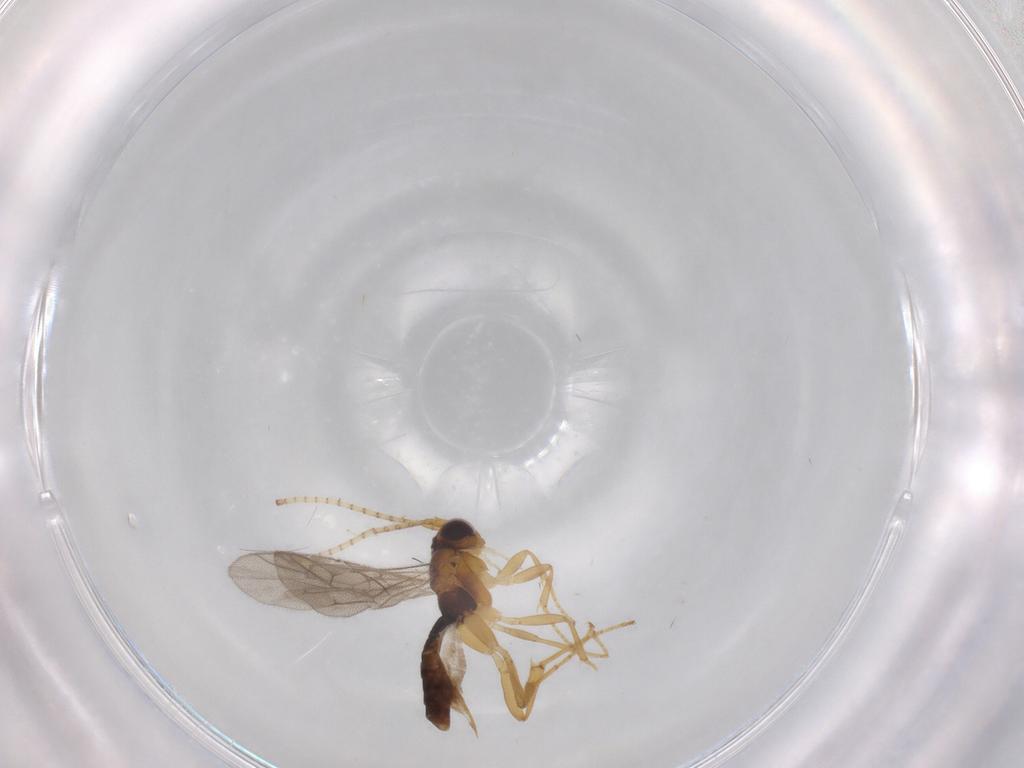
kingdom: Animalia
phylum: Arthropoda
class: Insecta
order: Hymenoptera
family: Ichneumonidae
